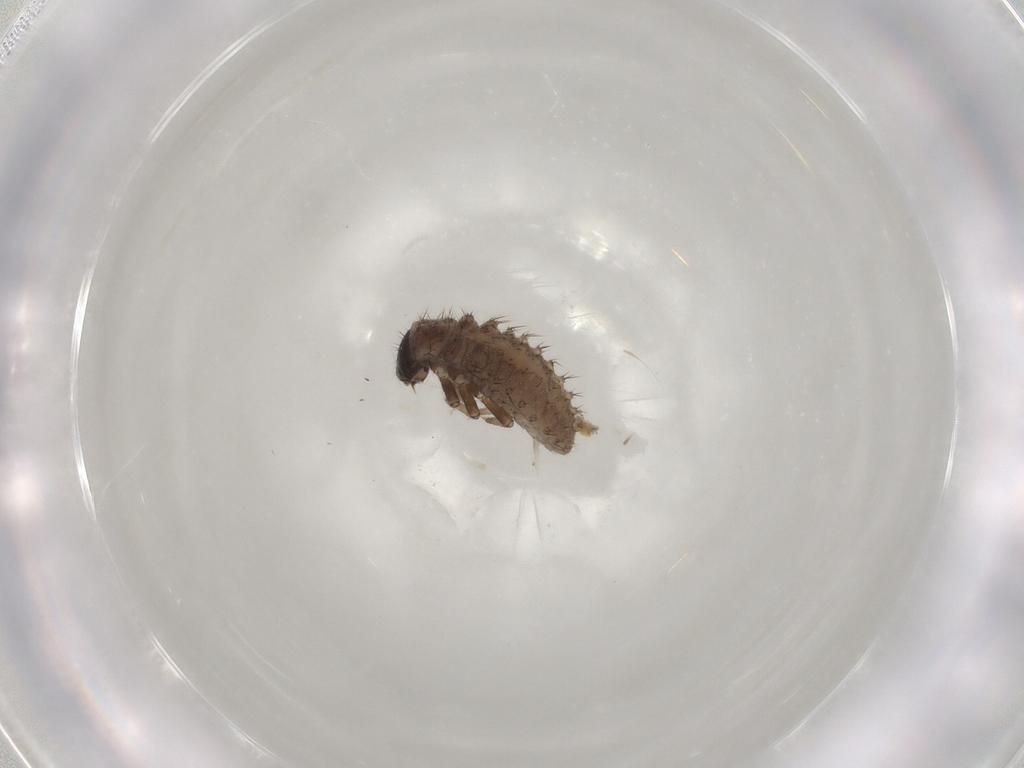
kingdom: Animalia
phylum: Arthropoda
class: Insecta
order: Coleoptera
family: Coccinellidae
